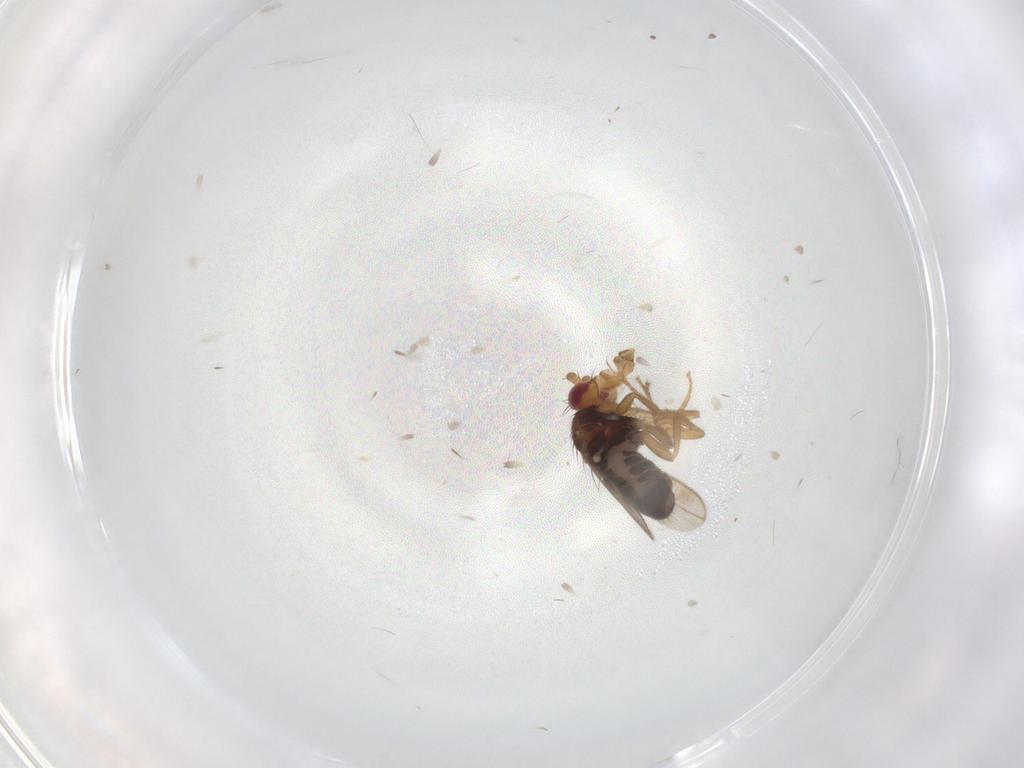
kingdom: Animalia
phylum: Arthropoda
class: Insecta
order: Diptera
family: Sphaeroceridae
